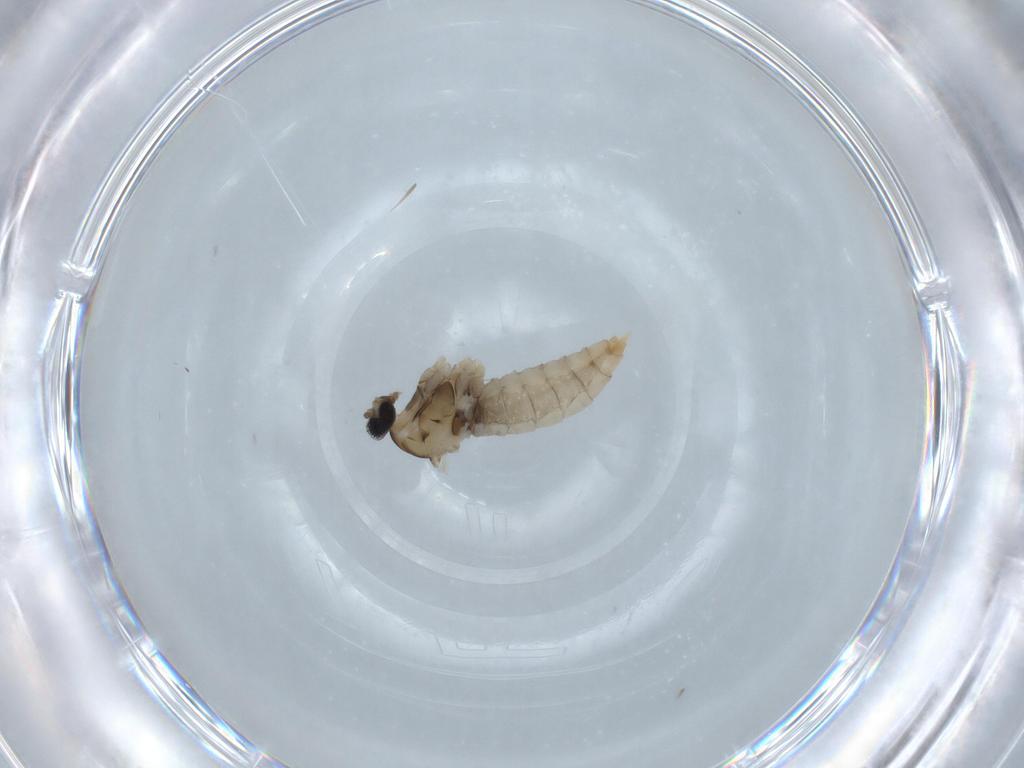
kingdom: Animalia
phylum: Arthropoda
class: Insecta
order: Diptera
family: Cecidomyiidae
